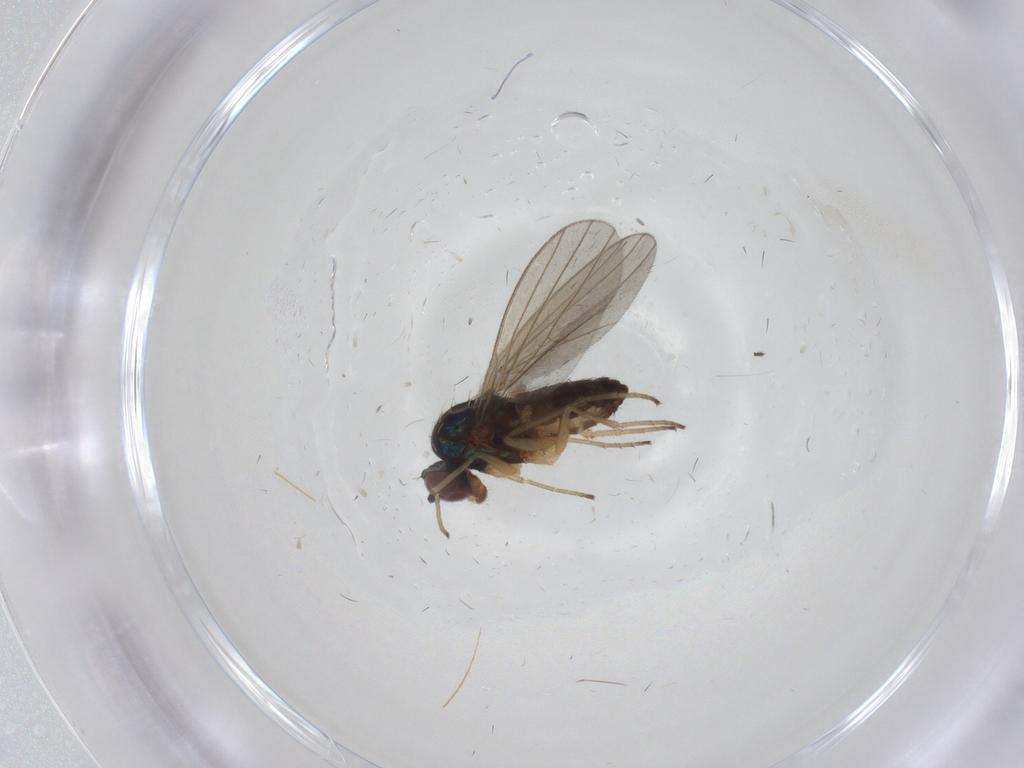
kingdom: Animalia
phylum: Arthropoda
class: Insecta
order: Diptera
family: Dolichopodidae
